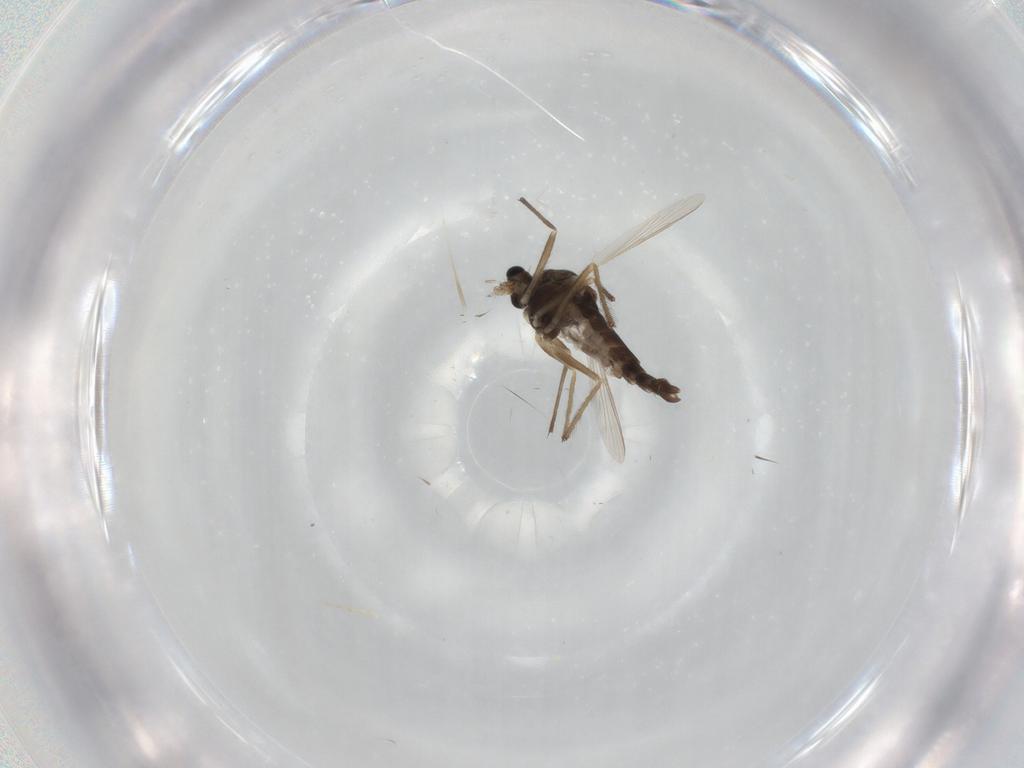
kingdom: Animalia
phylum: Arthropoda
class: Insecta
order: Diptera
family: Chironomidae
